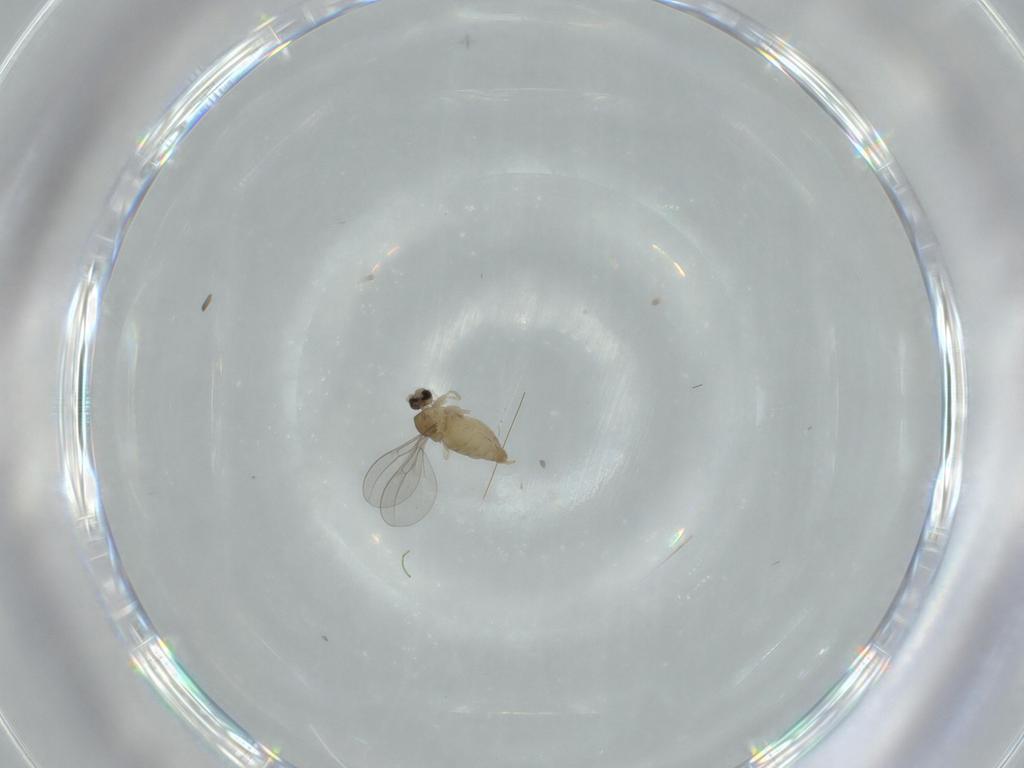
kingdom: Animalia
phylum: Arthropoda
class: Insecta
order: Diptera
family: Cecidomyiidae
